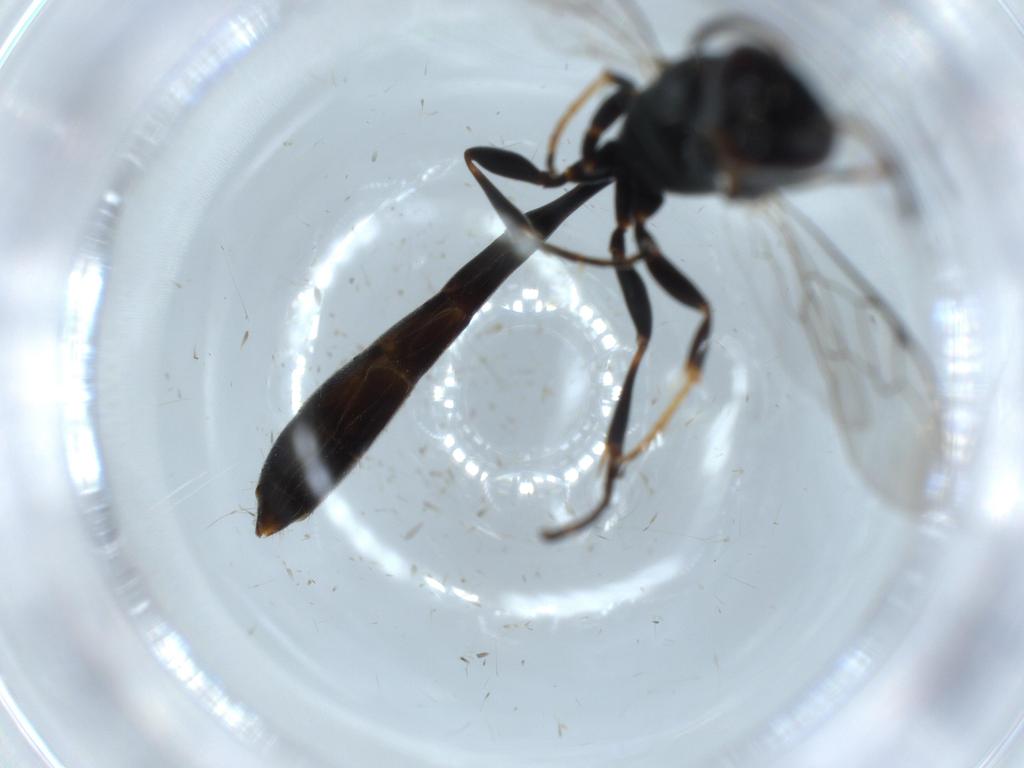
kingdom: Animalia
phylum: Arthropoda
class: Insecta
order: Hymenoptera
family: Crabronidae
